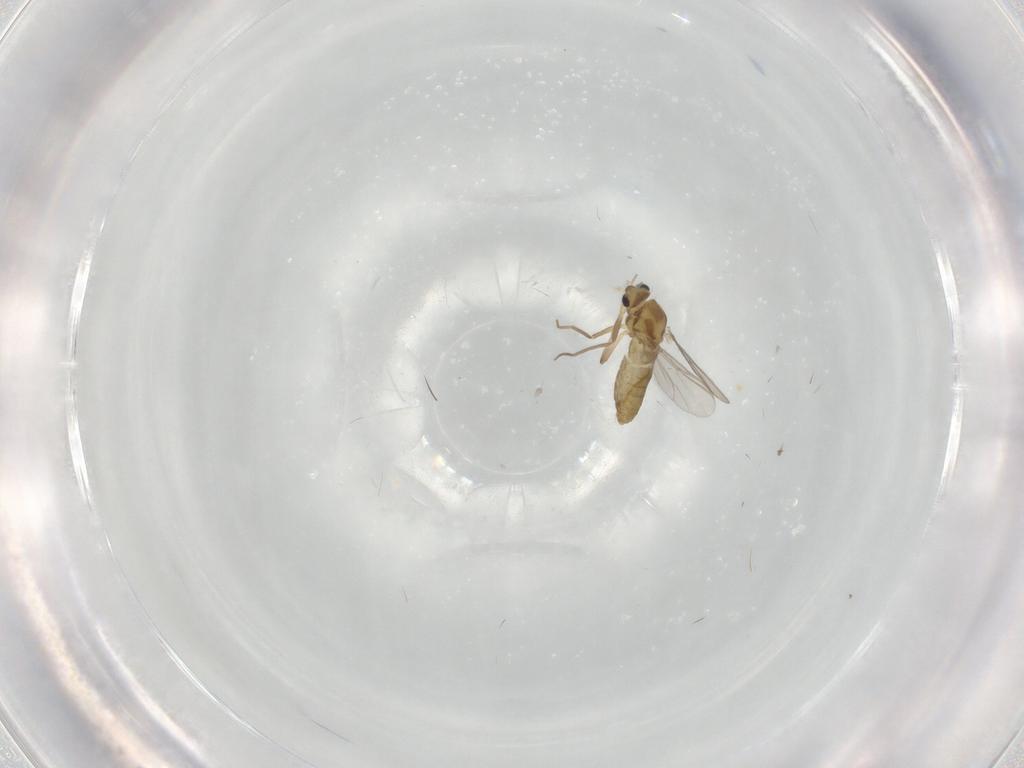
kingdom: Animalia
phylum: Arthropoda
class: Insecta
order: Diptera
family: Chironomidae
